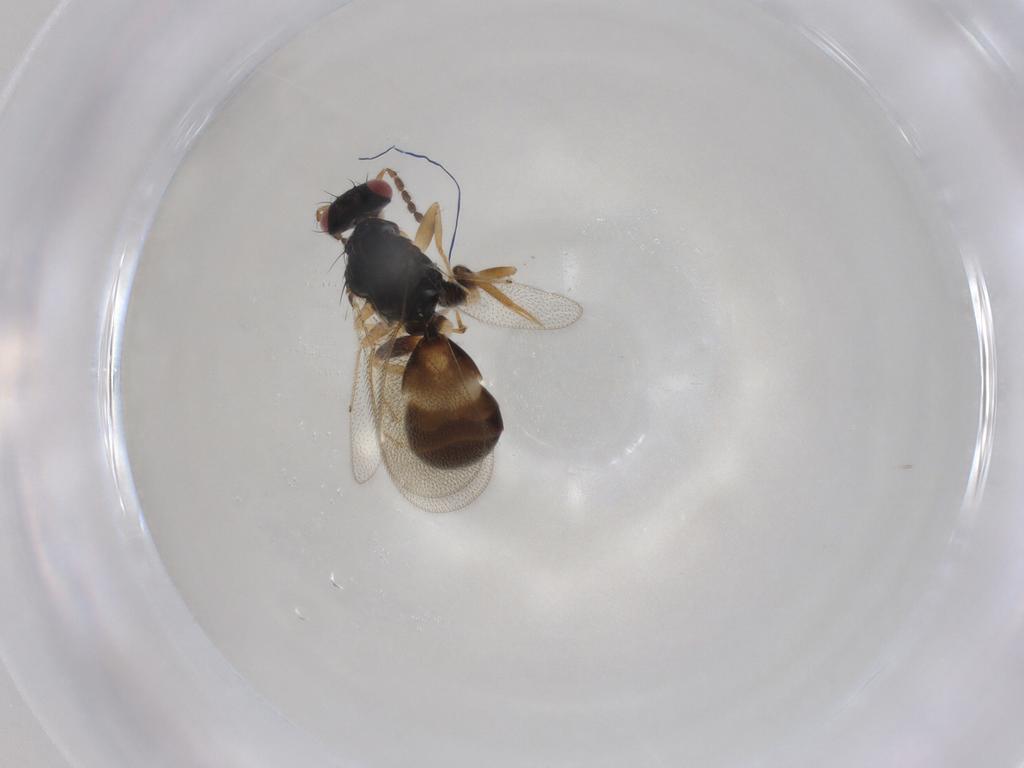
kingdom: Animalia
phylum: Arthropoda
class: Insecta
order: Hymenoptera
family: Eulophidae
